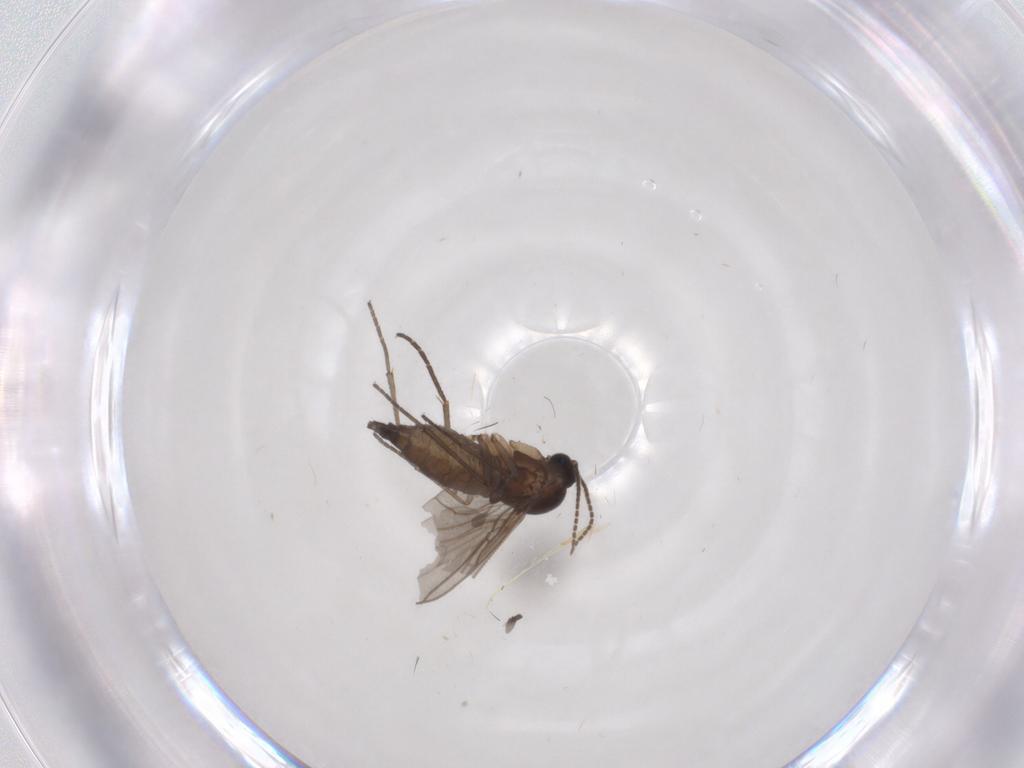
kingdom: Animalia
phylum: Arthropoda
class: Insecta
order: Diptera
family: Sciaridae
